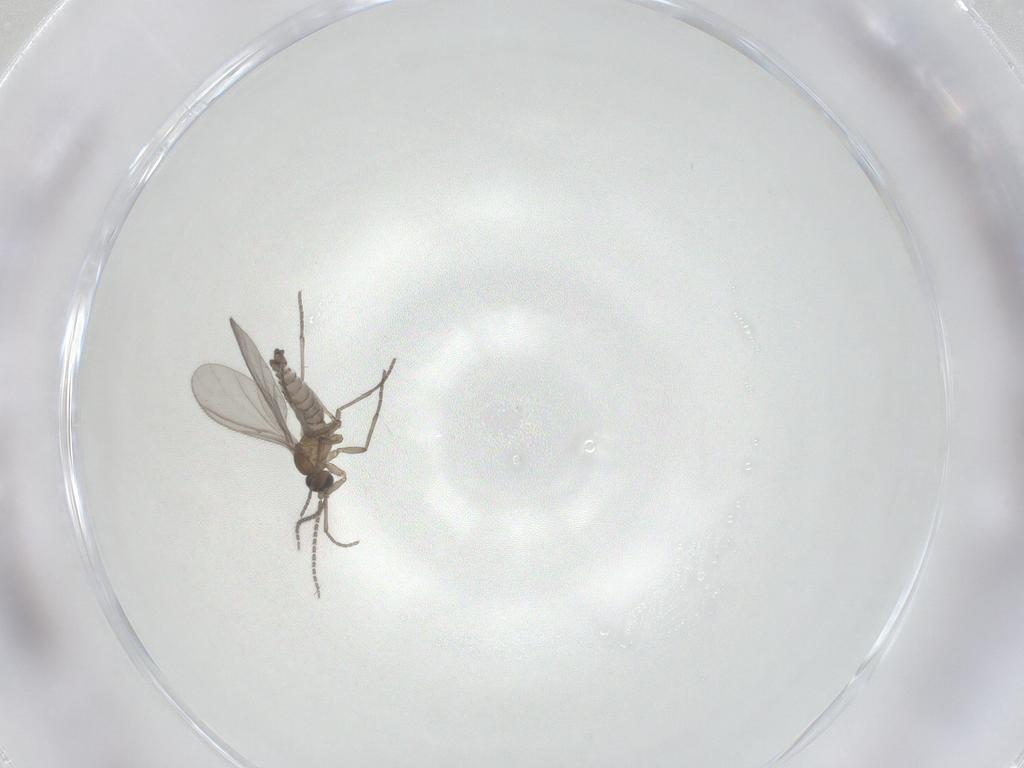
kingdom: Animalia
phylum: Arthropoda
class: Insecta
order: Diptera
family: Sciaridae
